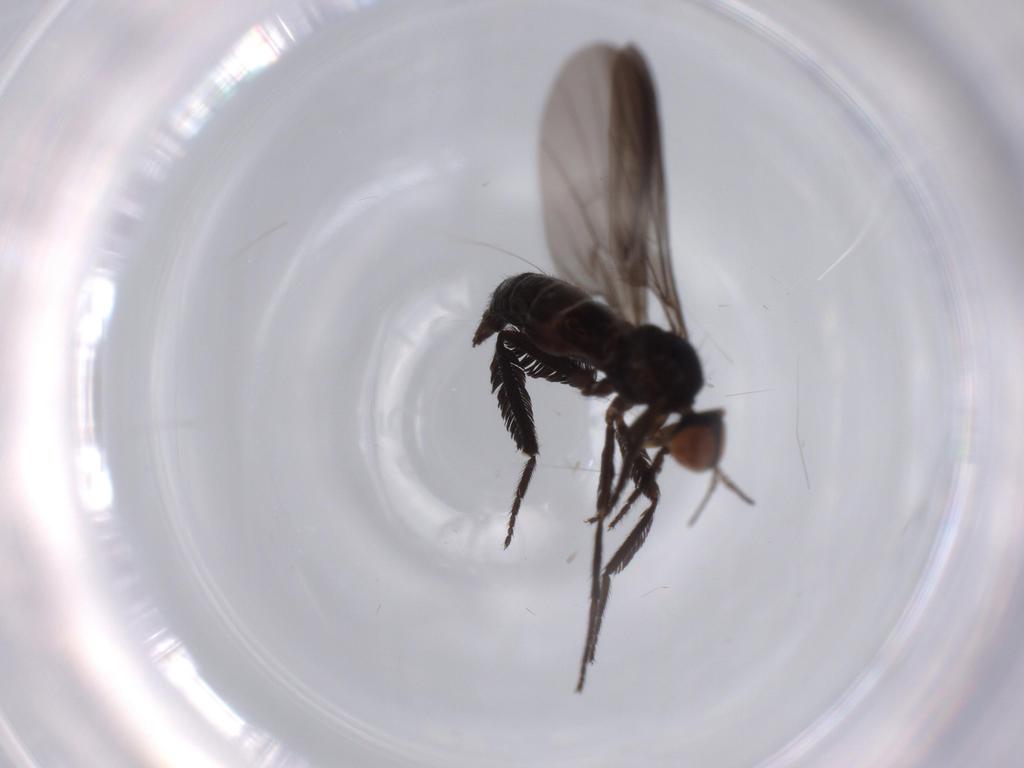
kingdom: Animalia
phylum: Arthropoda
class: Insecta
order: Diptera
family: Empididae
